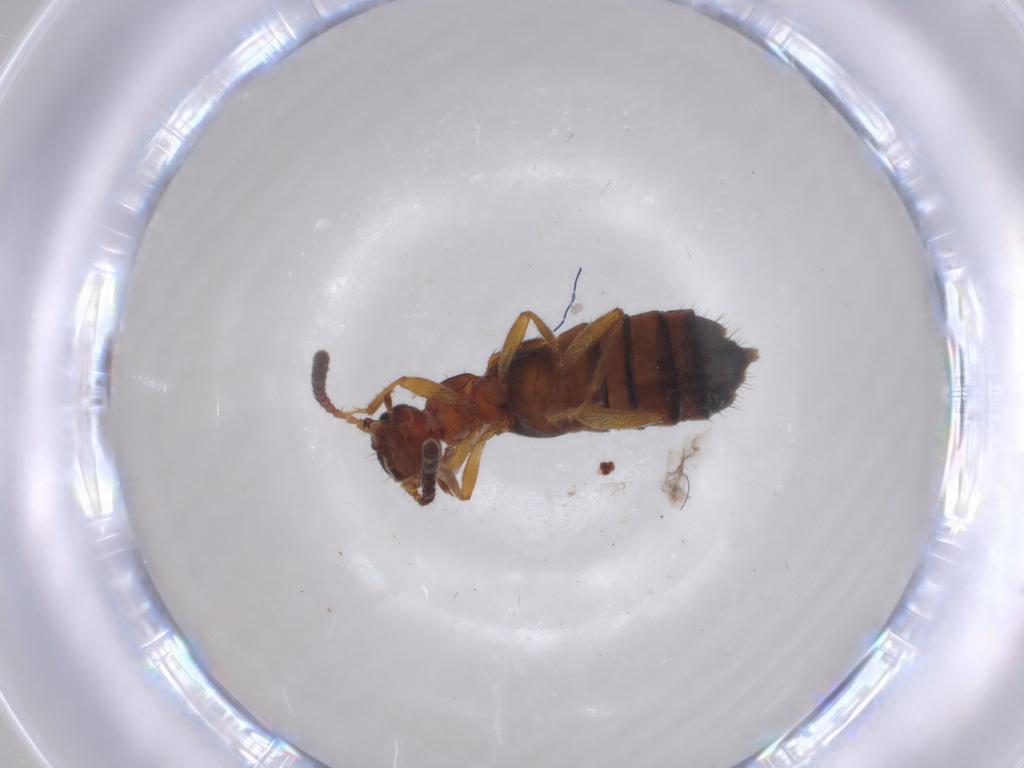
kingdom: Animalia
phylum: Arthropoda
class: Insecta
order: Coleoptera
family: Staphylinidae
